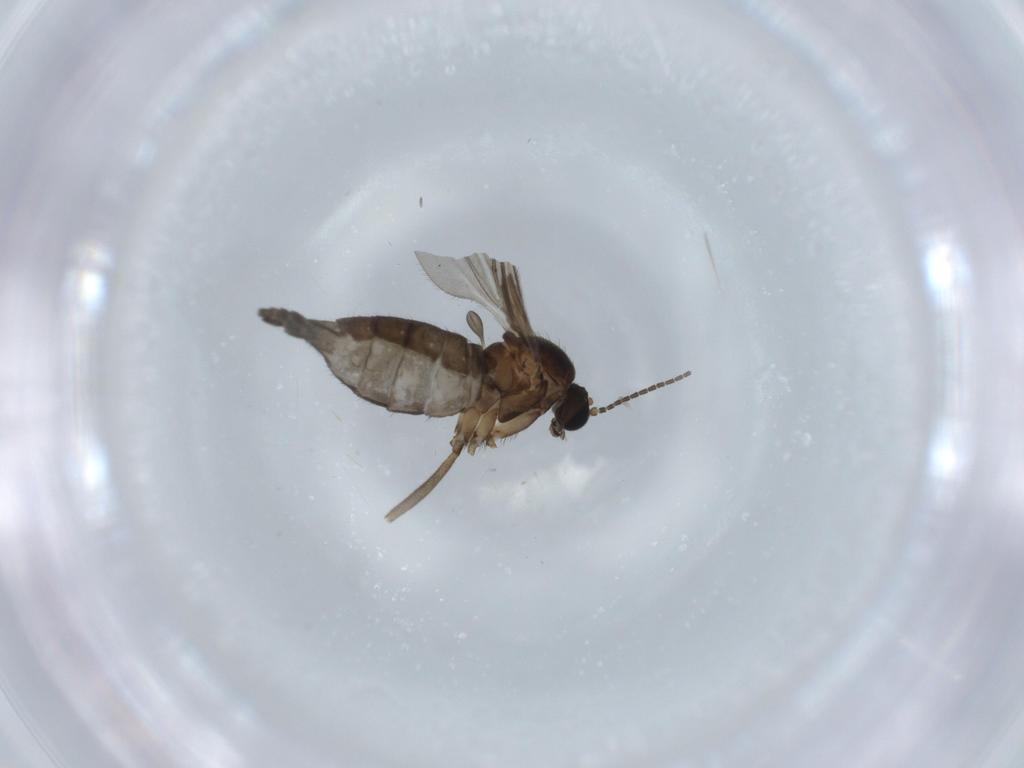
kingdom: Animalia
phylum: Arthropoda
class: Insecta
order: Diptera
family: Sciaridae
